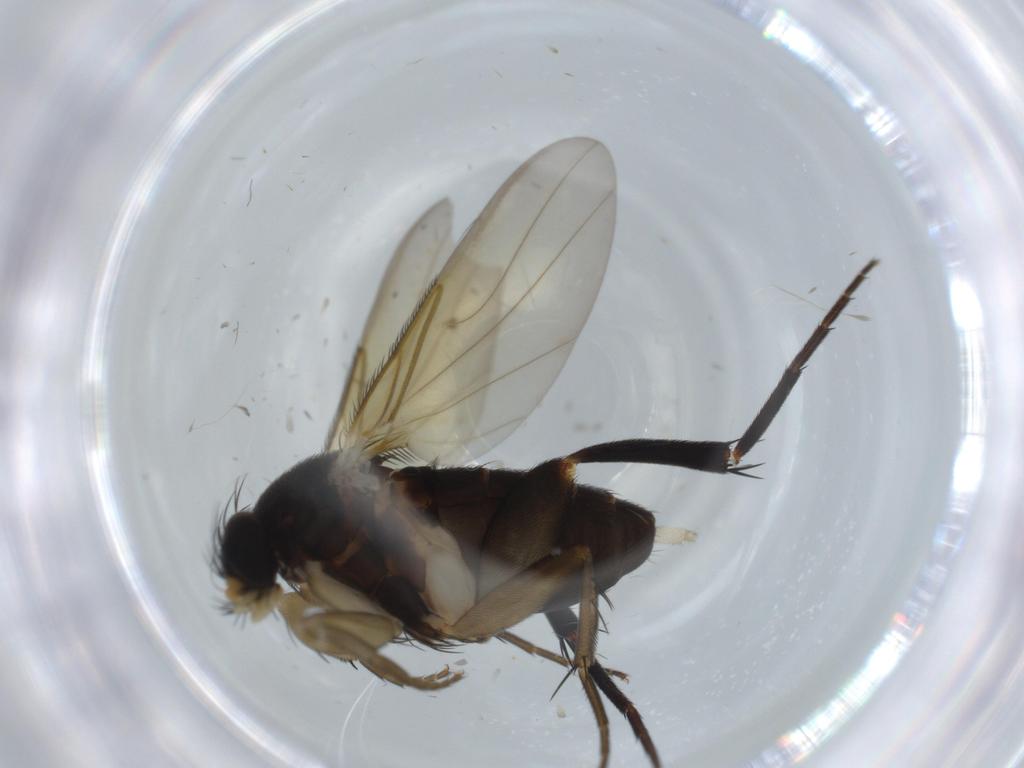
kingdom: Animalia
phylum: Arthropoda
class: Insecta
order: Diptera
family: Phoridae
